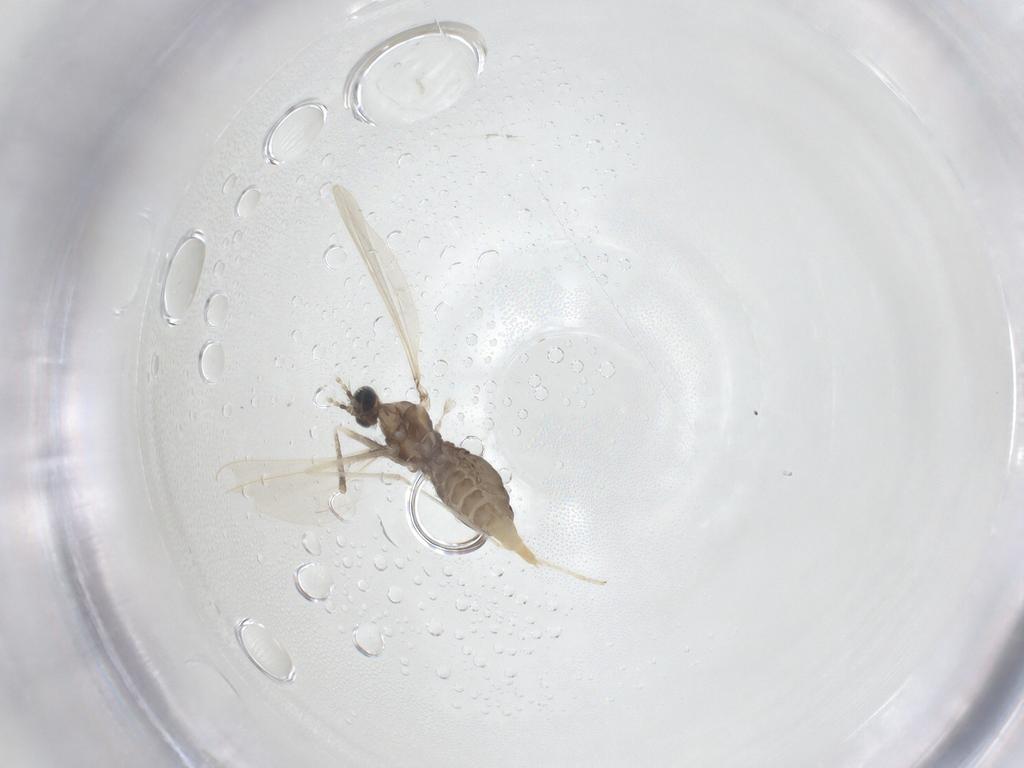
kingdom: Animalia
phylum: Arthropoda
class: Insecta
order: Diptera
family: Cecidomyiidae
